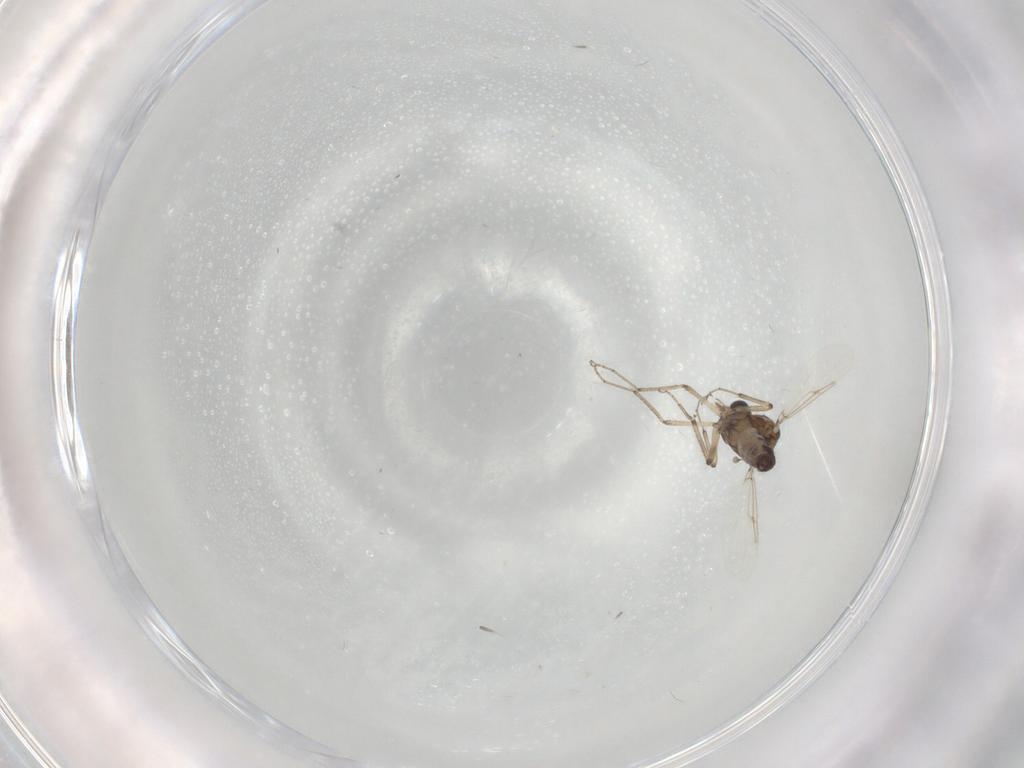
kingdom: Animalia
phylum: Arthropoda
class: Insecta
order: Diptera
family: Ceratopogonidae
